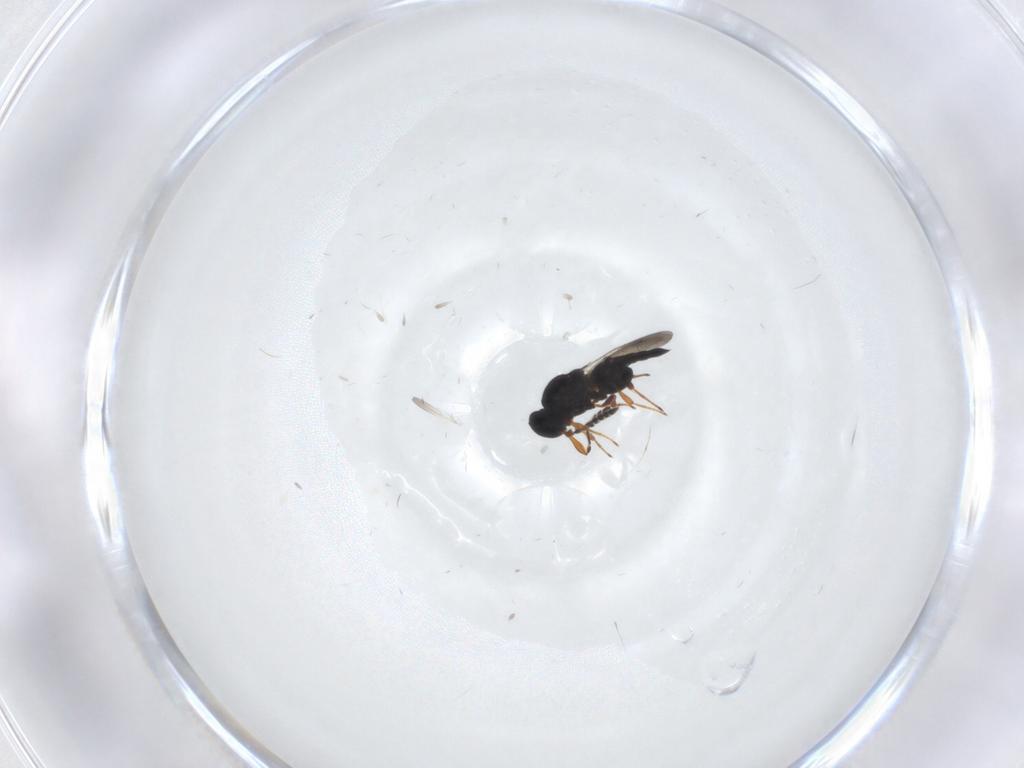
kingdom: Animalia
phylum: Arthropoda
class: Insecta
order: Hymenoptera
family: Platygastridae
